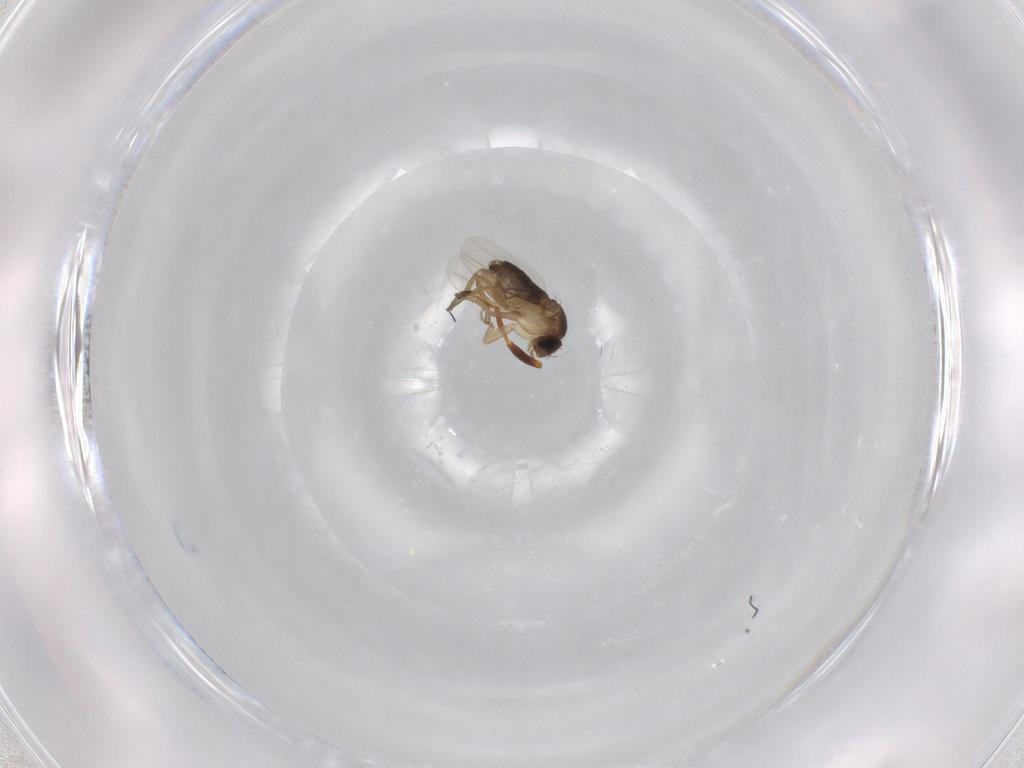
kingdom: Animalia
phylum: Arthropoda
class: Insecta
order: Diptera
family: Phoridae
